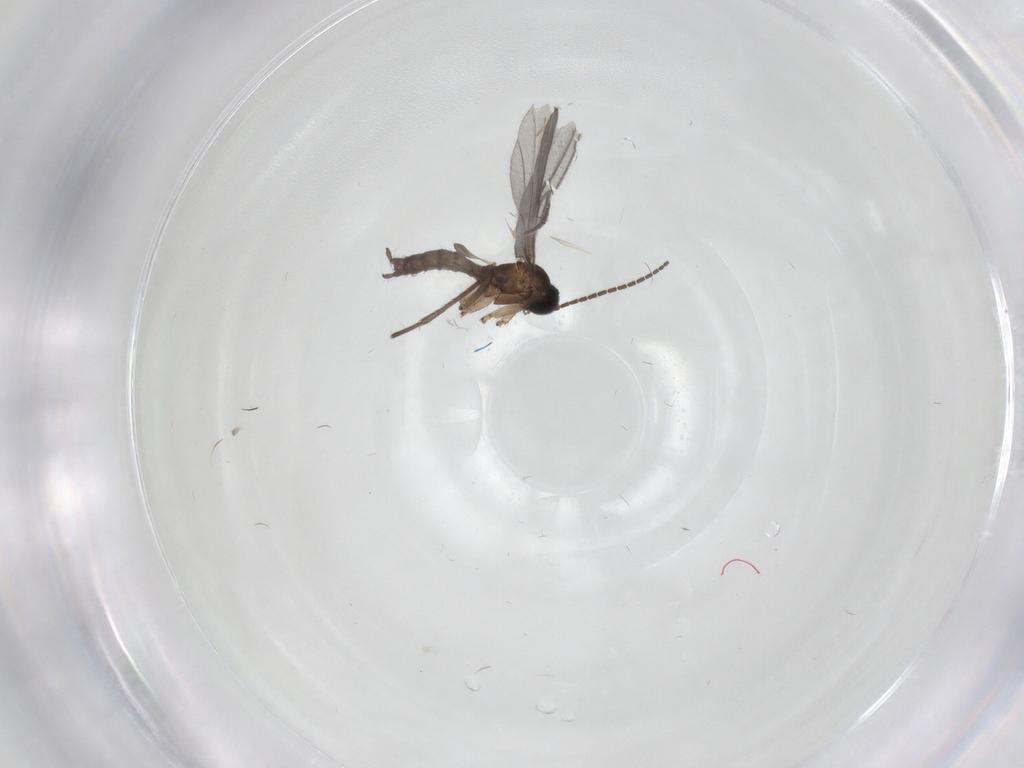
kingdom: Animalia
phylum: Arthropoda
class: Insecta
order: Diptera
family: Sciaridae
